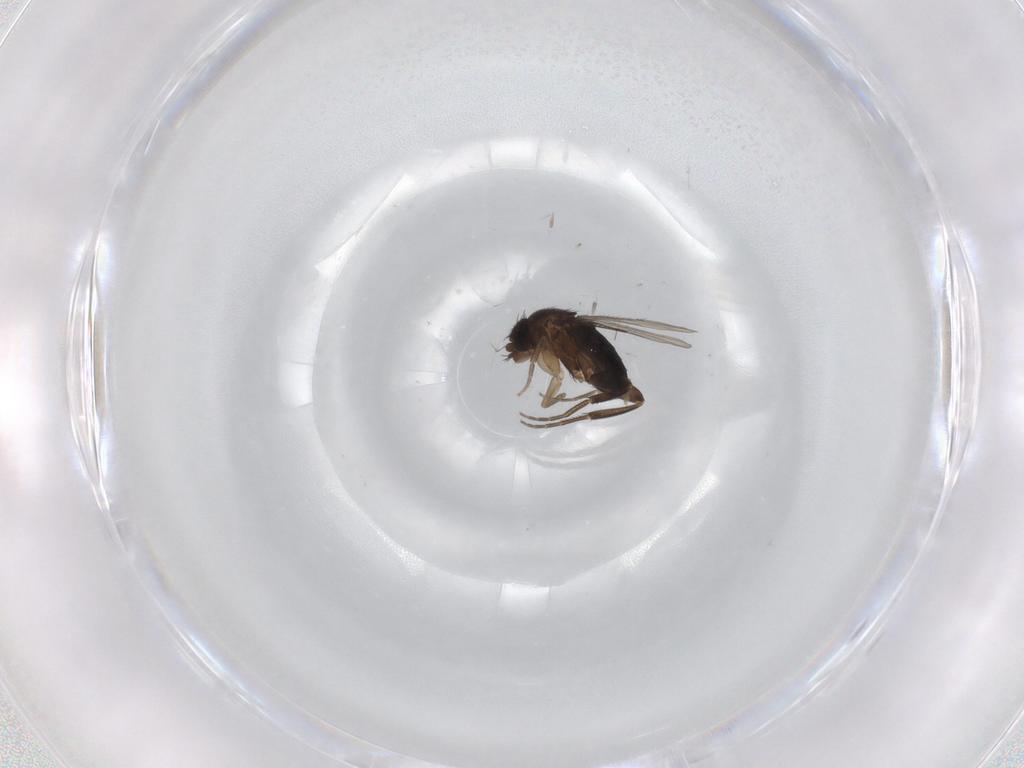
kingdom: Animalia
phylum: Arthropoda
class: Insecta
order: Diptera
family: Phoridae
